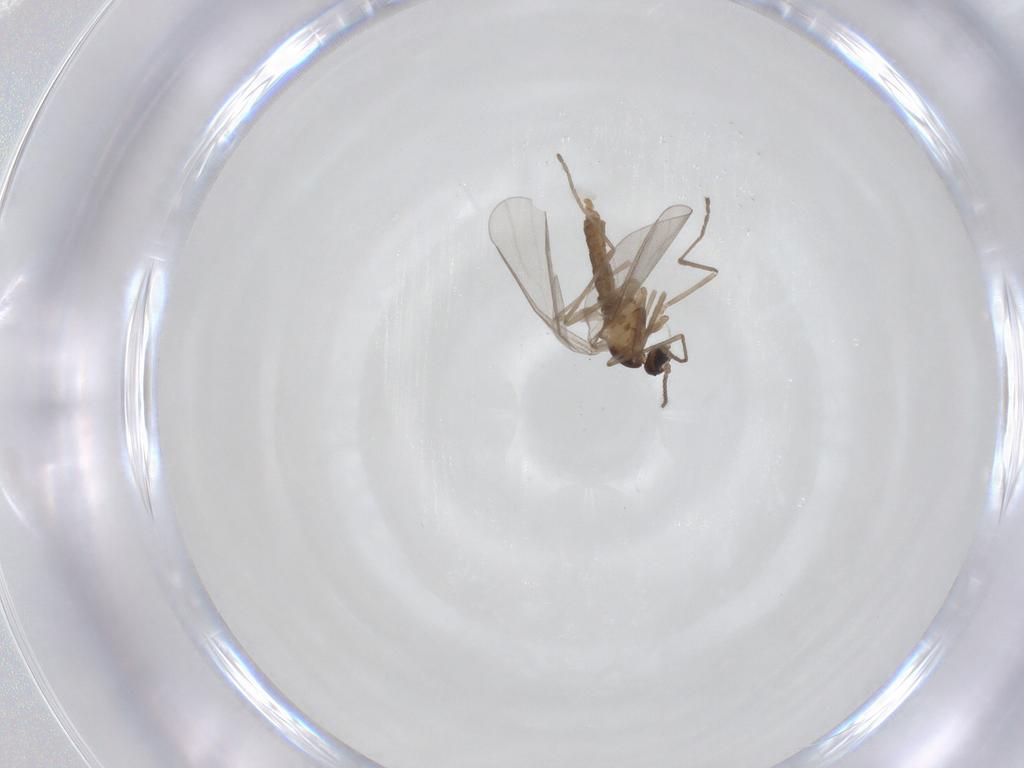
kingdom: Animalia
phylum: Arthropoda
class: Insecta
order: Diptera
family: Cecidomyiidae
